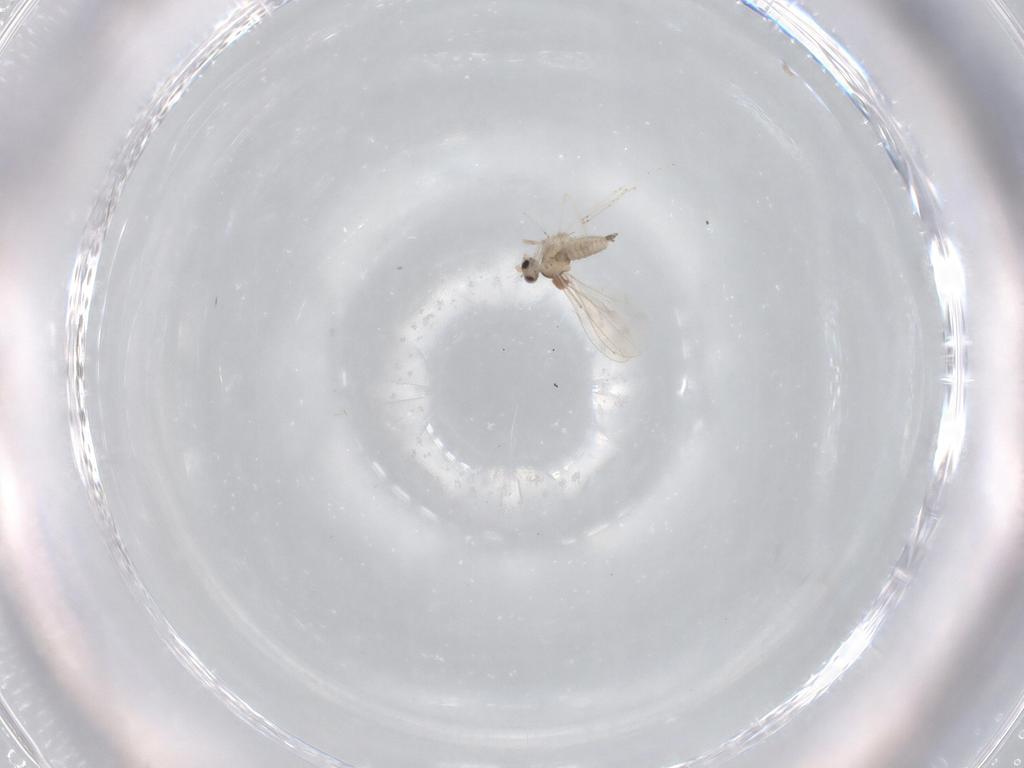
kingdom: Animalia
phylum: Arthropoda
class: Insecta
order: Diptera
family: Cecidomyiidae
